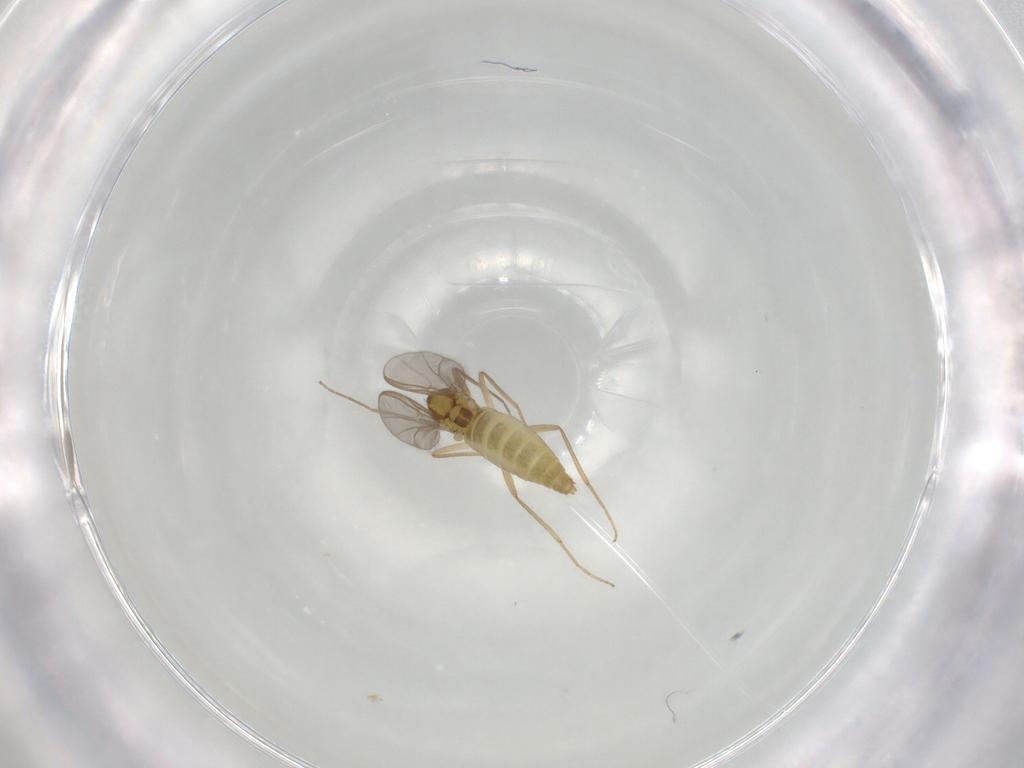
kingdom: Animalia
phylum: Arthropoda
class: Insecta
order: Diptera
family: Chironomidae
